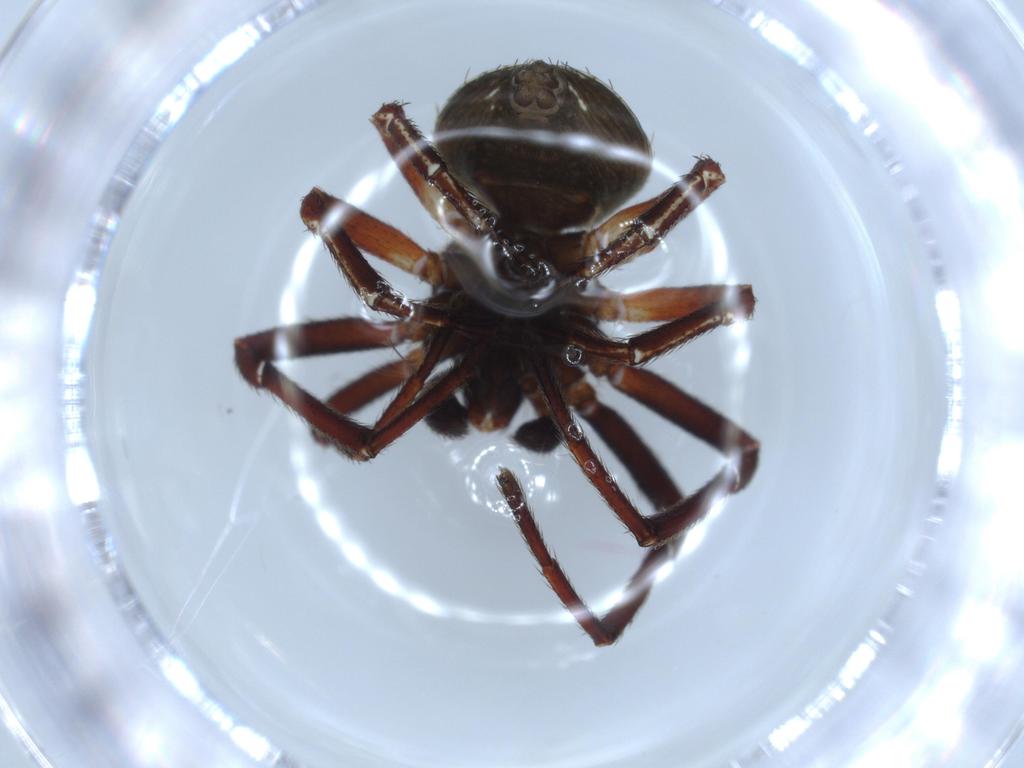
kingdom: Animalia
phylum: Arthropoda
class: Arachnida
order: Araneae
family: Thomisidae
